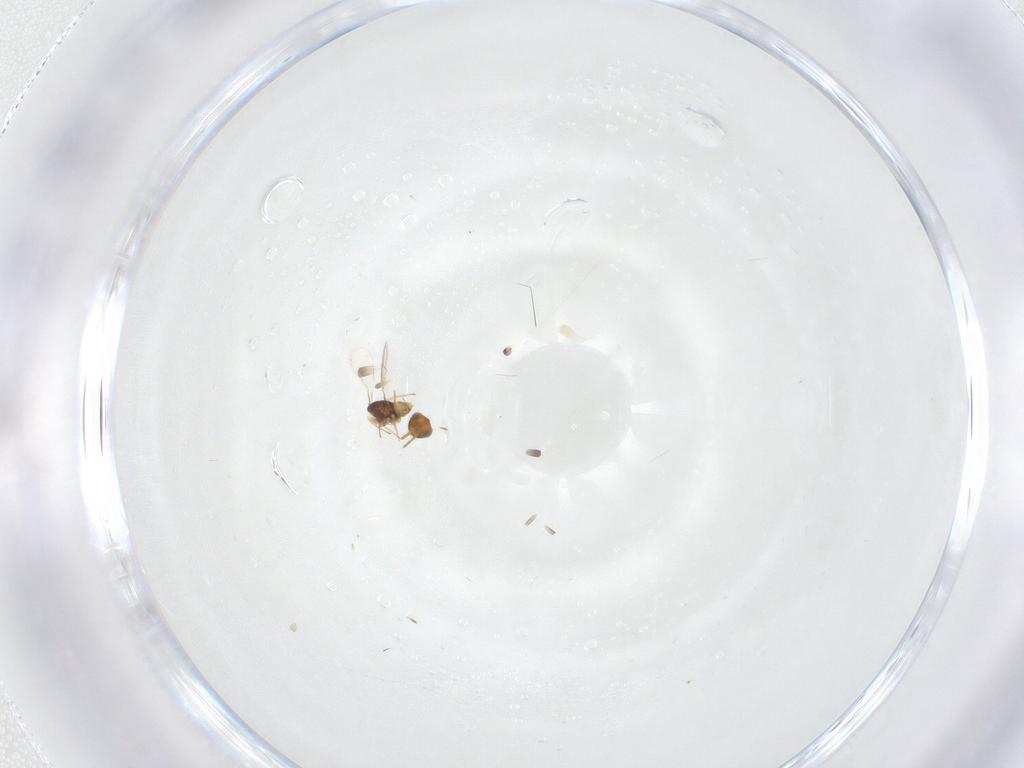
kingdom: Animalia
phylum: Arthropoda
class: Insecta
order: Hymenoptera
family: Aphelinidae
